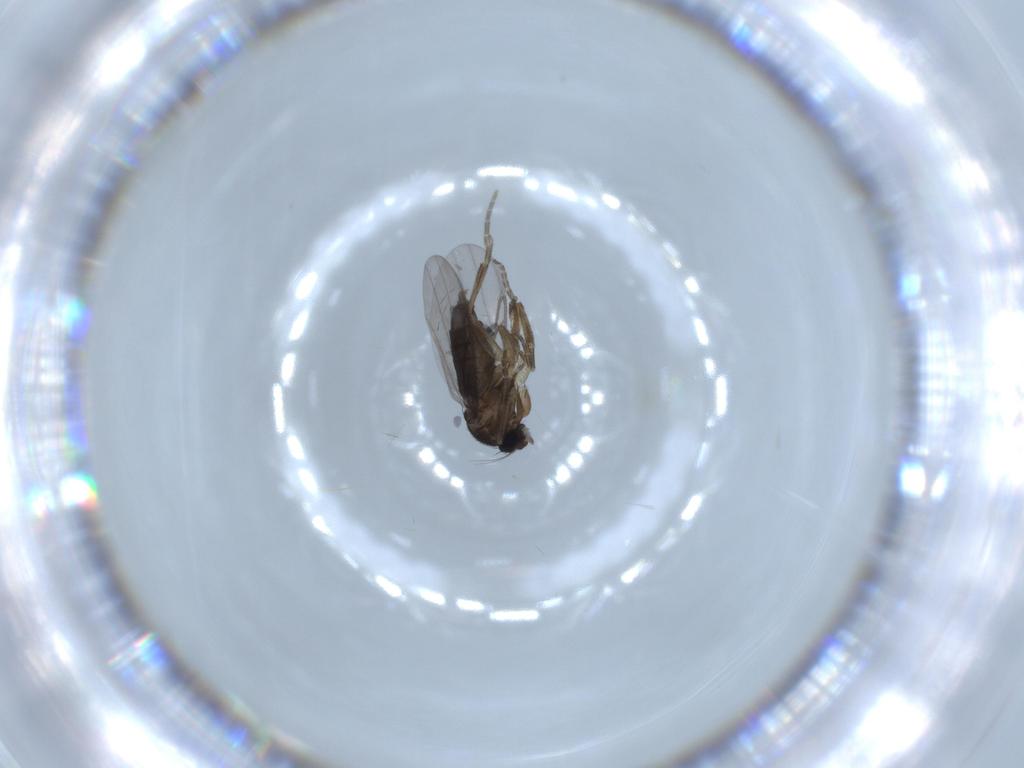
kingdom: Animalia
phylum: Arthropoda
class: Insecta
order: Diptera
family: Phoridae
